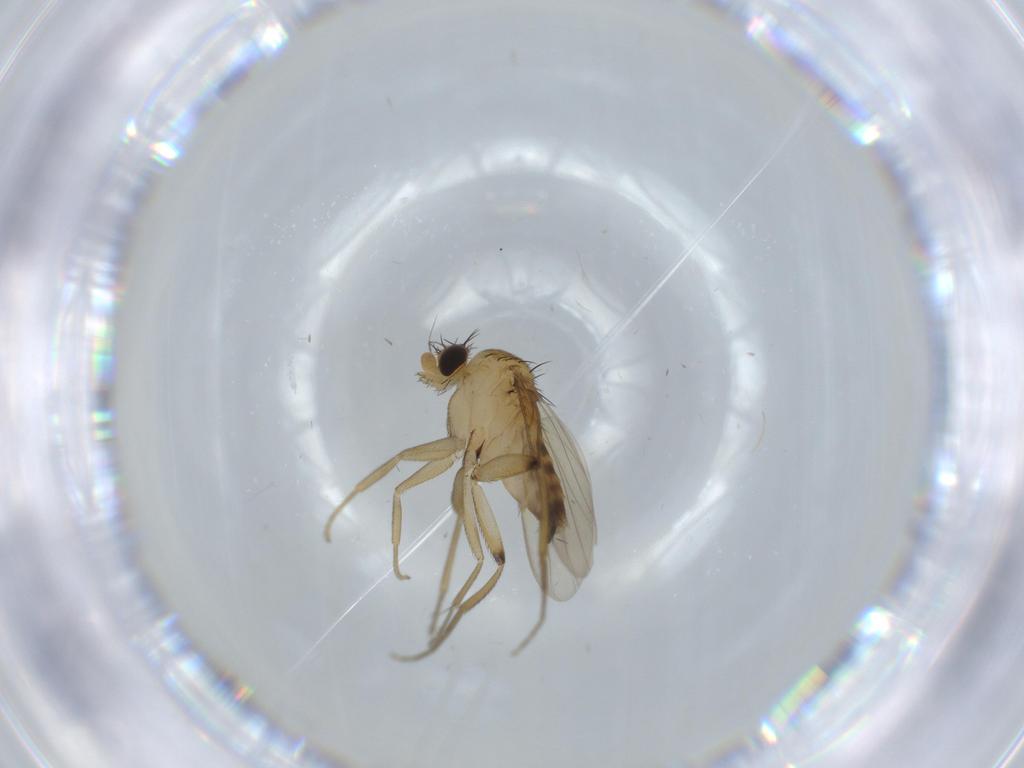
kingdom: Animalia
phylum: Arthropoda
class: Insecta
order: Diptera
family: Phoridae
